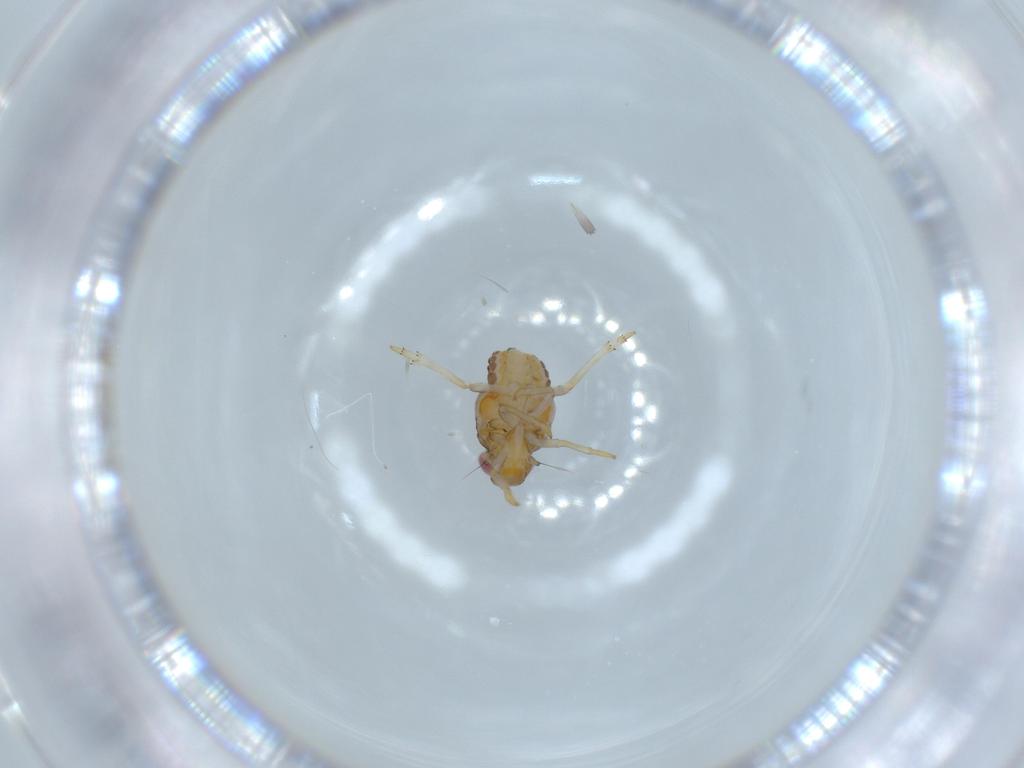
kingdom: Animalia
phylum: Arthropoda
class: Insecta
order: Hemiptera
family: Issidae
